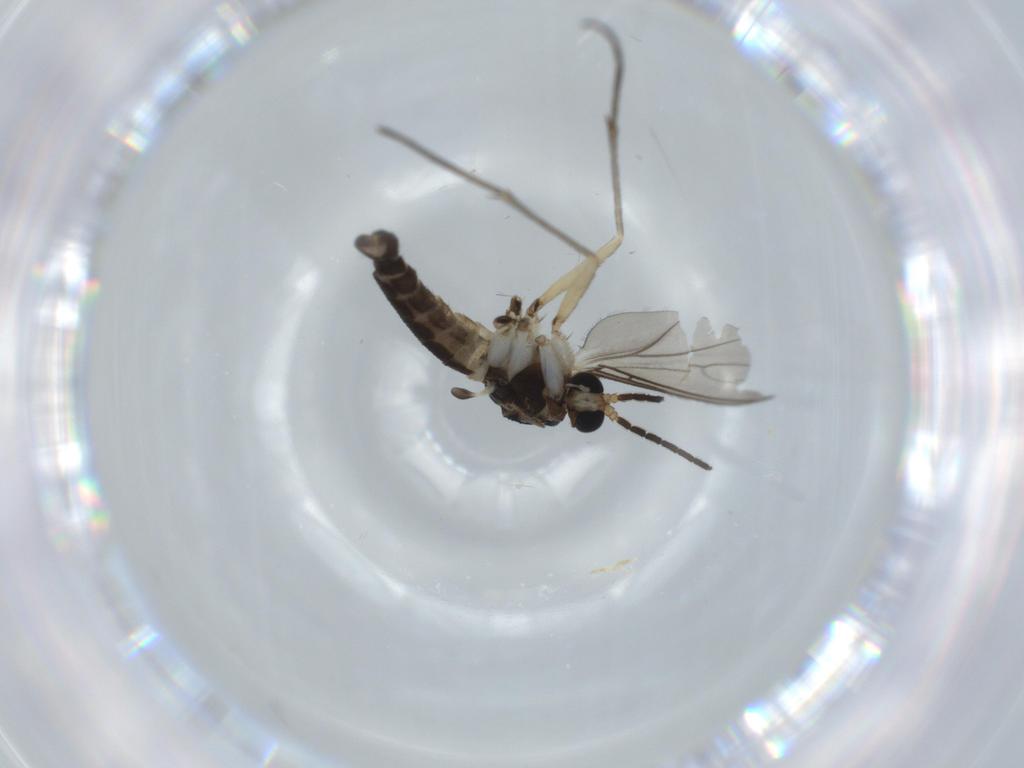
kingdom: Animalia
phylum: Arthropoda
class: Insecta
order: Diptera
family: Sciaridae
